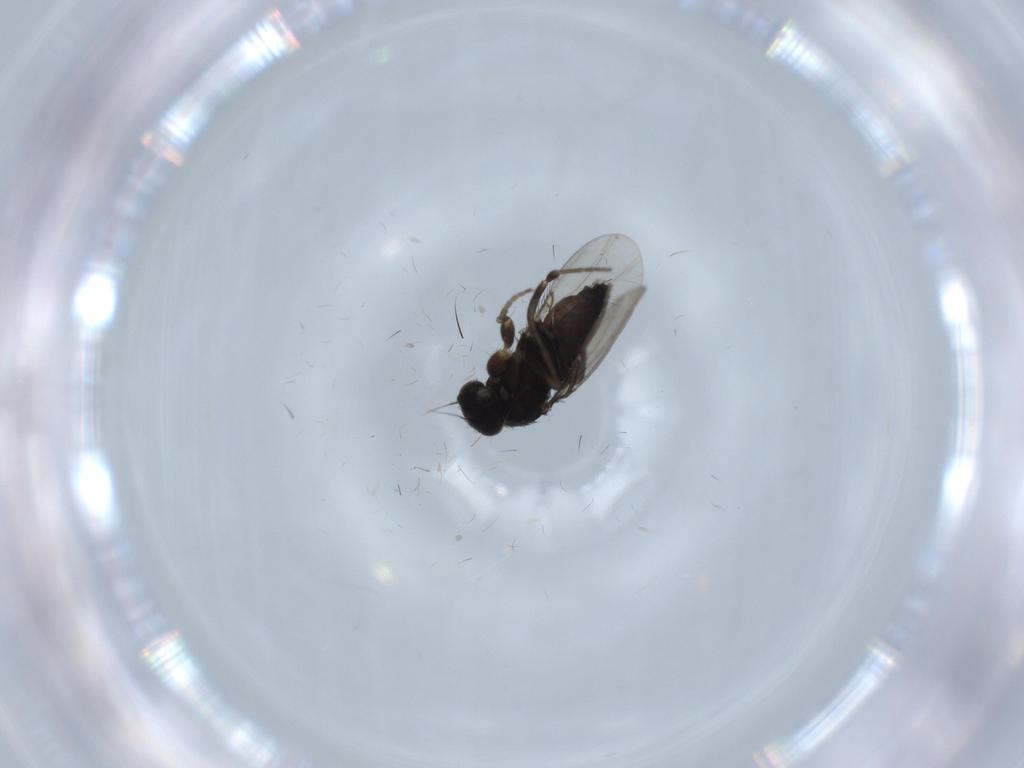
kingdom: Animalia
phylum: Arthropoda
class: Insecta
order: Diptera
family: Phoridae
